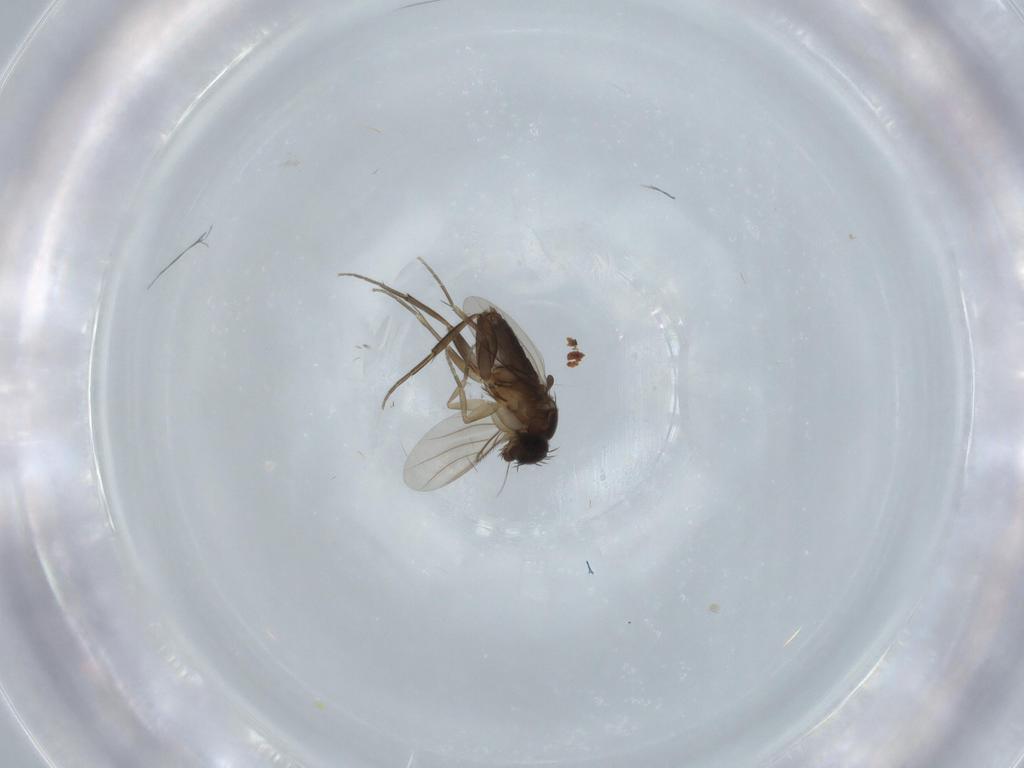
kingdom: Animalia
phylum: Arthropoda
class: Insecta
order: Diptera
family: Phoridae
